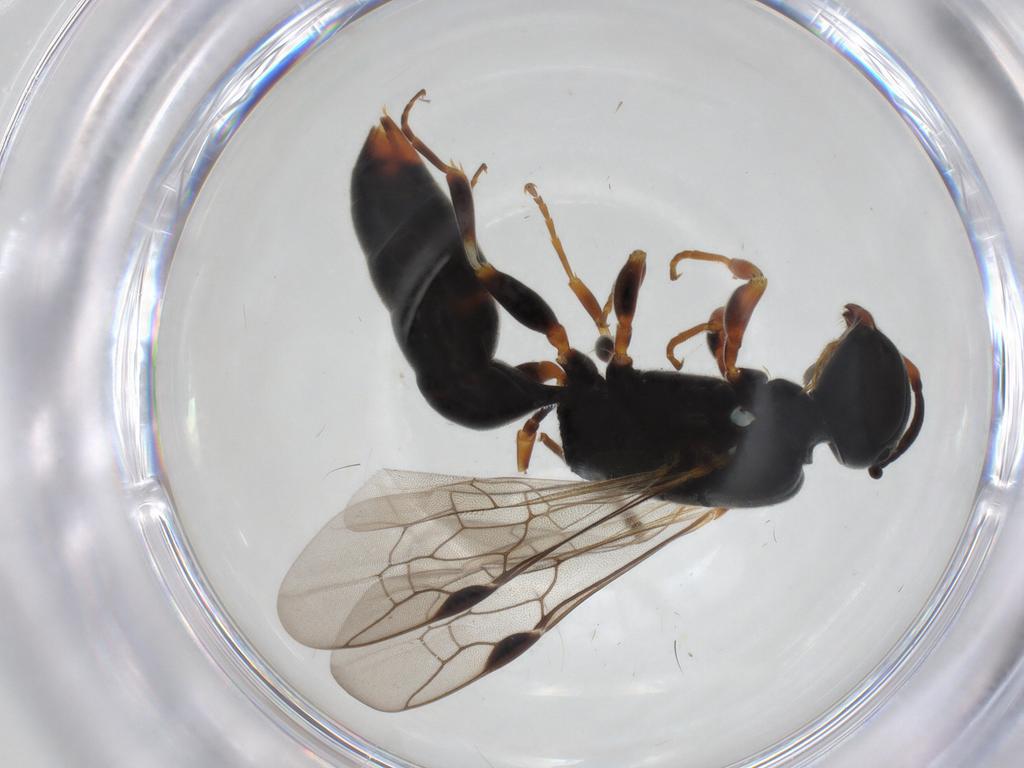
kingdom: Animalia
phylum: Arthropoda
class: Insecta
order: Hymenoptera
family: Pemphredonidae
